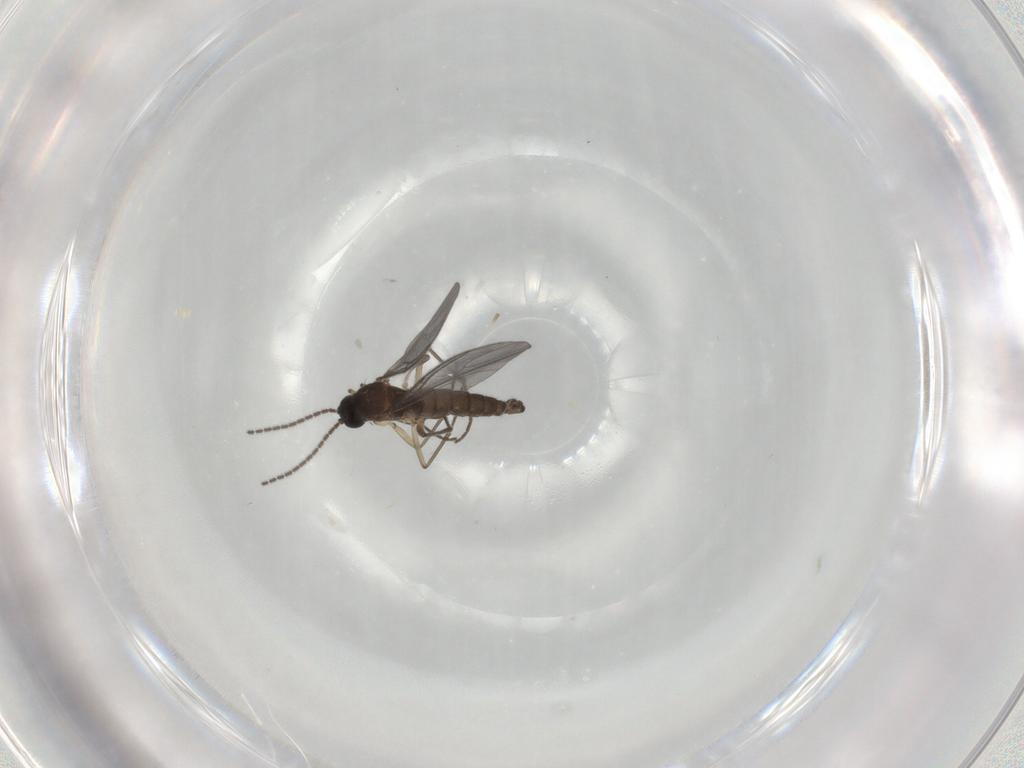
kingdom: Animalia
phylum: Arthropoda
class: Insecta
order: Diptera
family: Sciaridae
